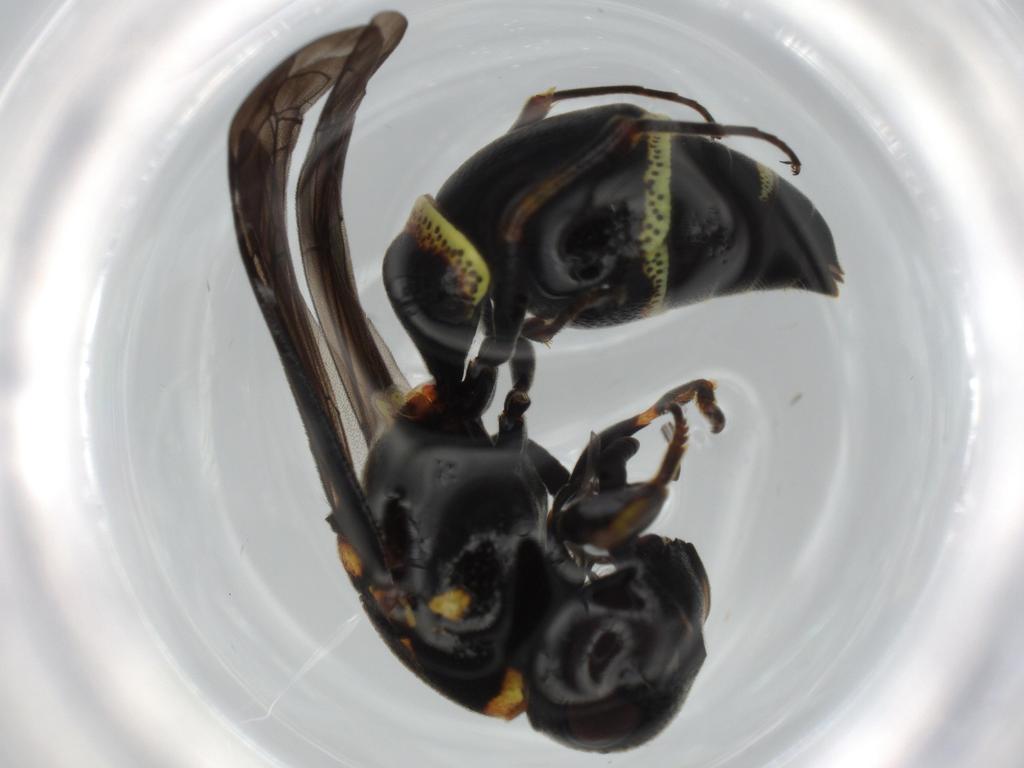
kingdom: Animalia
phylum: Arthropoda
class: Insecta
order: Hymenoptera
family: Vespidae
